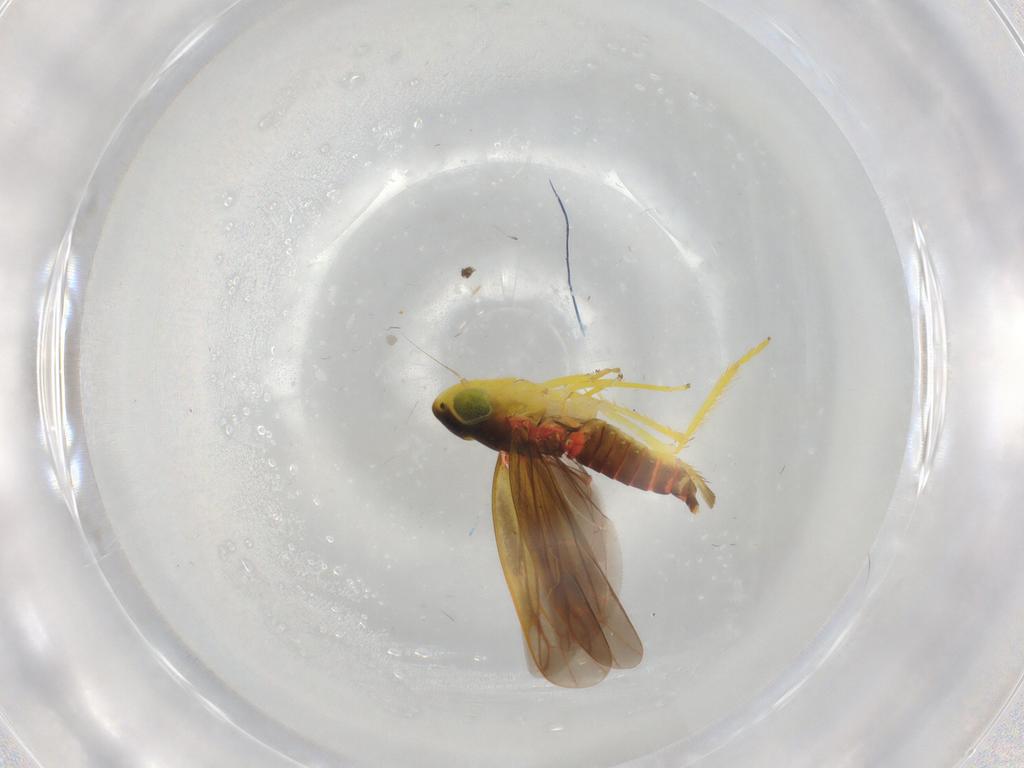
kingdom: Animalia
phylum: Arthropoda
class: Insecta
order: Hemiptera
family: Cicadellidae
